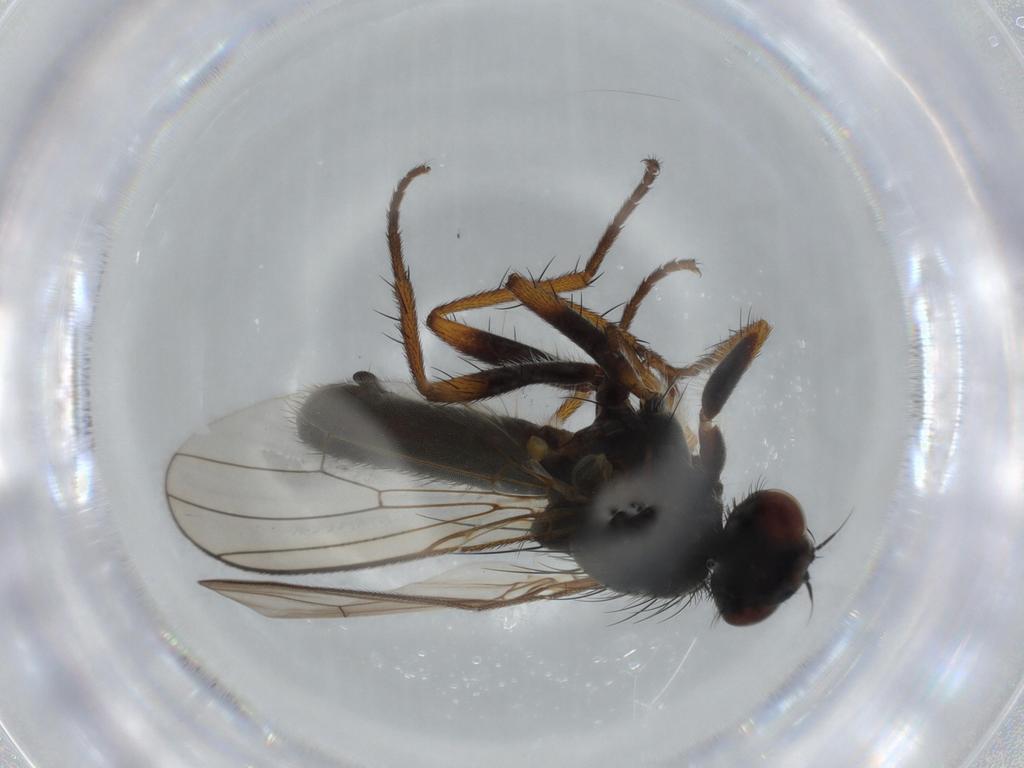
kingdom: Animalia
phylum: Arthropoda
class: Insecta
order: Diptera
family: Scathophagidae
